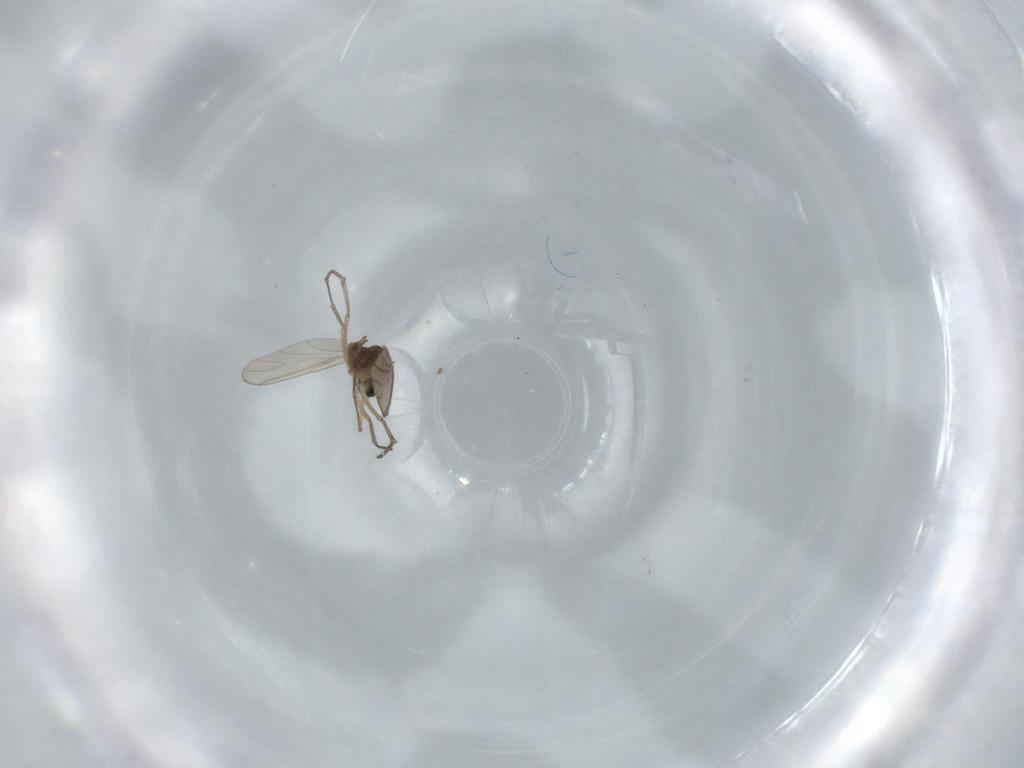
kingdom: Animalia
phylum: Arthropoda
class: Insecta
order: Diptera
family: Sciaridae
